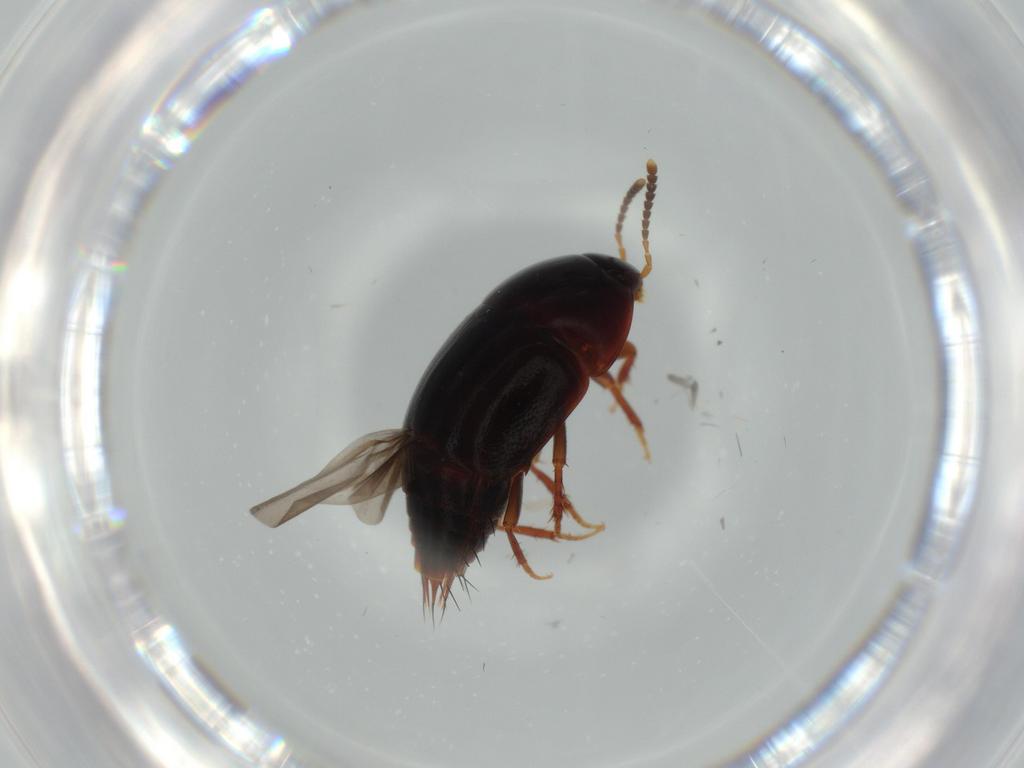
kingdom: Animalia
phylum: Arthropoda
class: Insecta
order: Coleoptera
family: Staphylinidae
